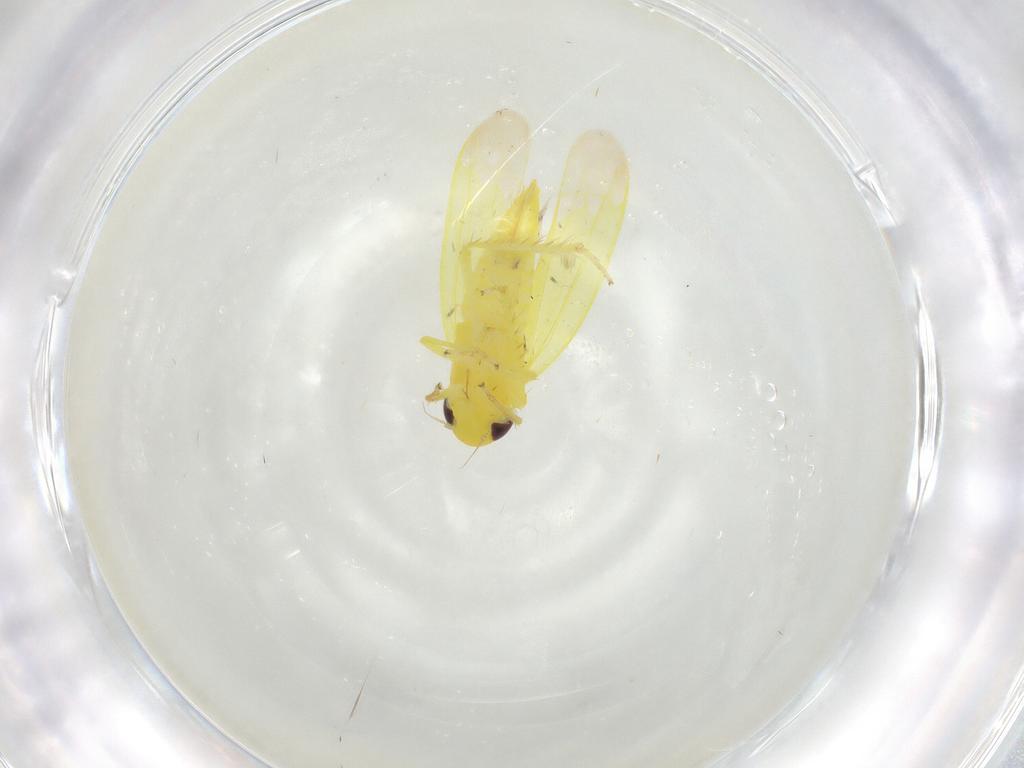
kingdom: Animalia
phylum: Arthropoda
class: Insecta
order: Hemiptera
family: Cicadellidae
